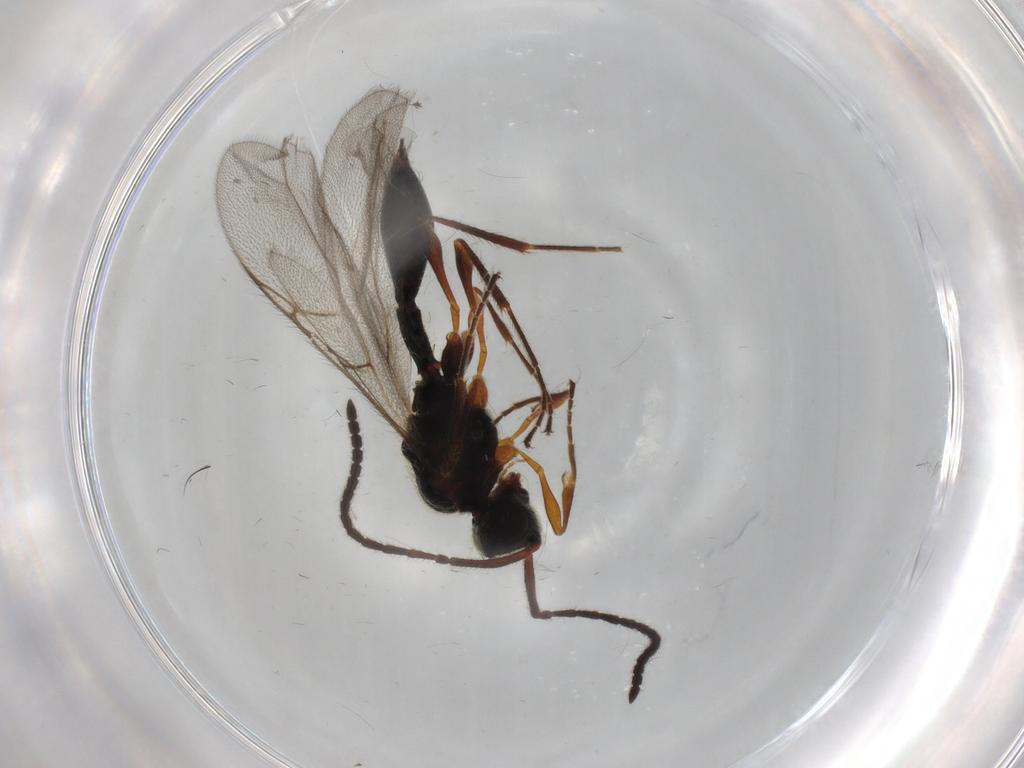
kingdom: Animalia
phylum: Arthropoda
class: Insecta
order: Hymenoptera
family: Diapriidae
